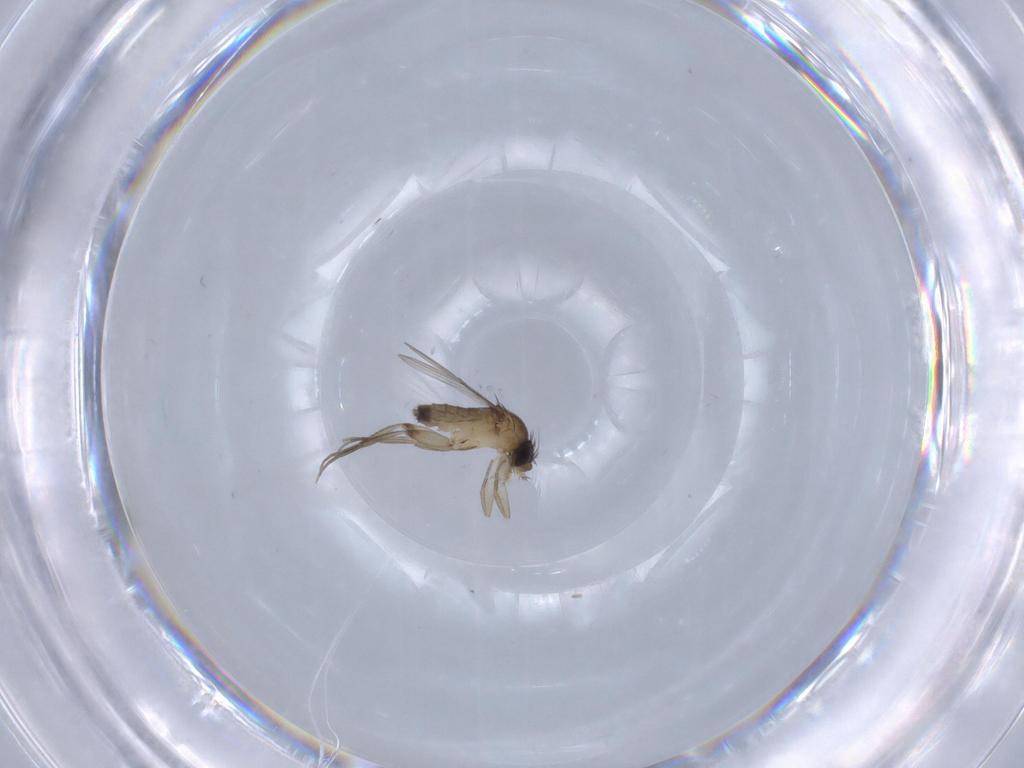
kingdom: Animalia
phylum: Arthropoda
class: Insecta
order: Diptera
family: Phoridae
